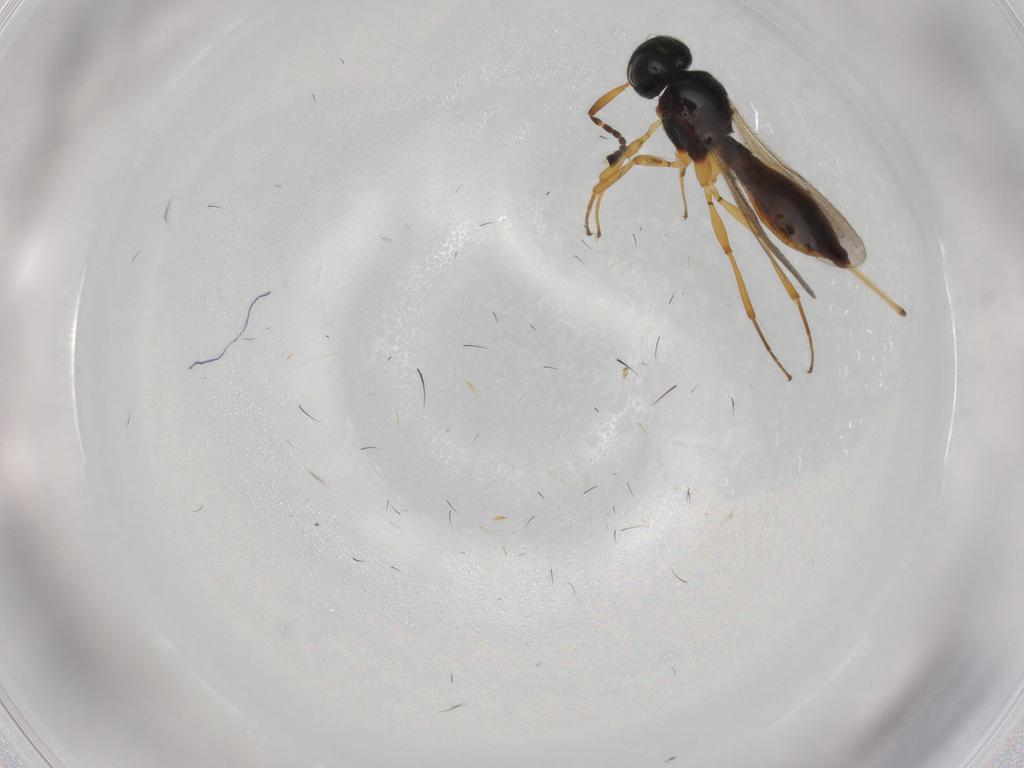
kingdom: Animalia
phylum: Arthropoda
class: Insecta
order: Hymenoptera
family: Scelionidae
